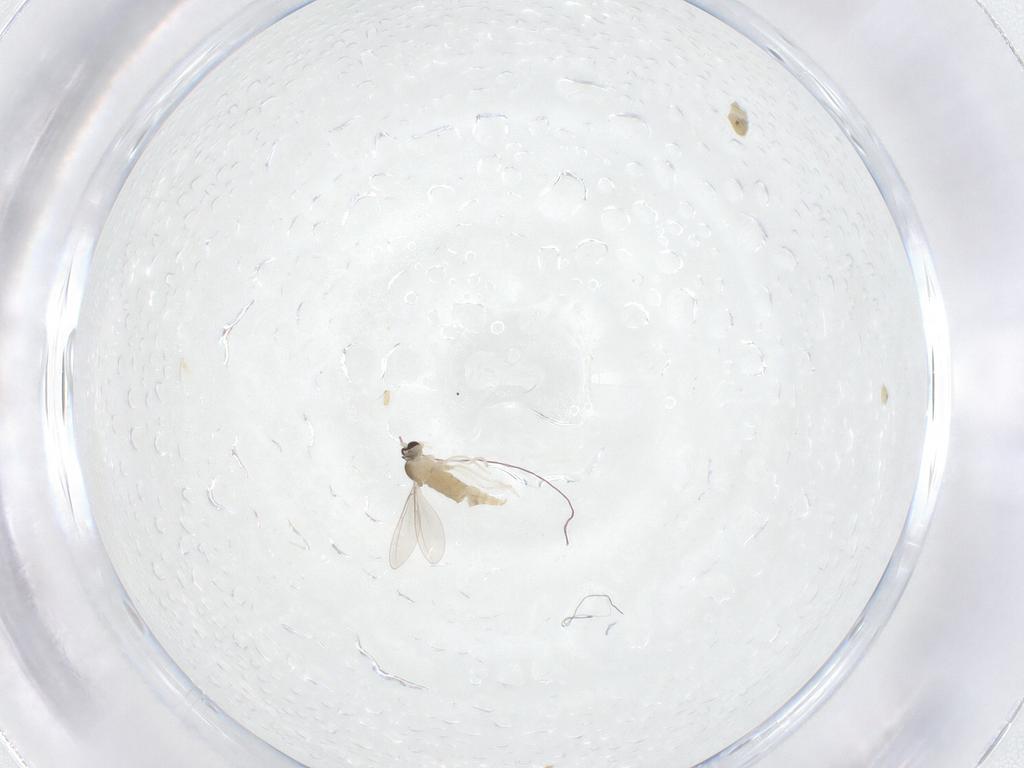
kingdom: Animalia
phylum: Arthropoda
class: Insecta
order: Diptera
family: Cecidomyiidae
